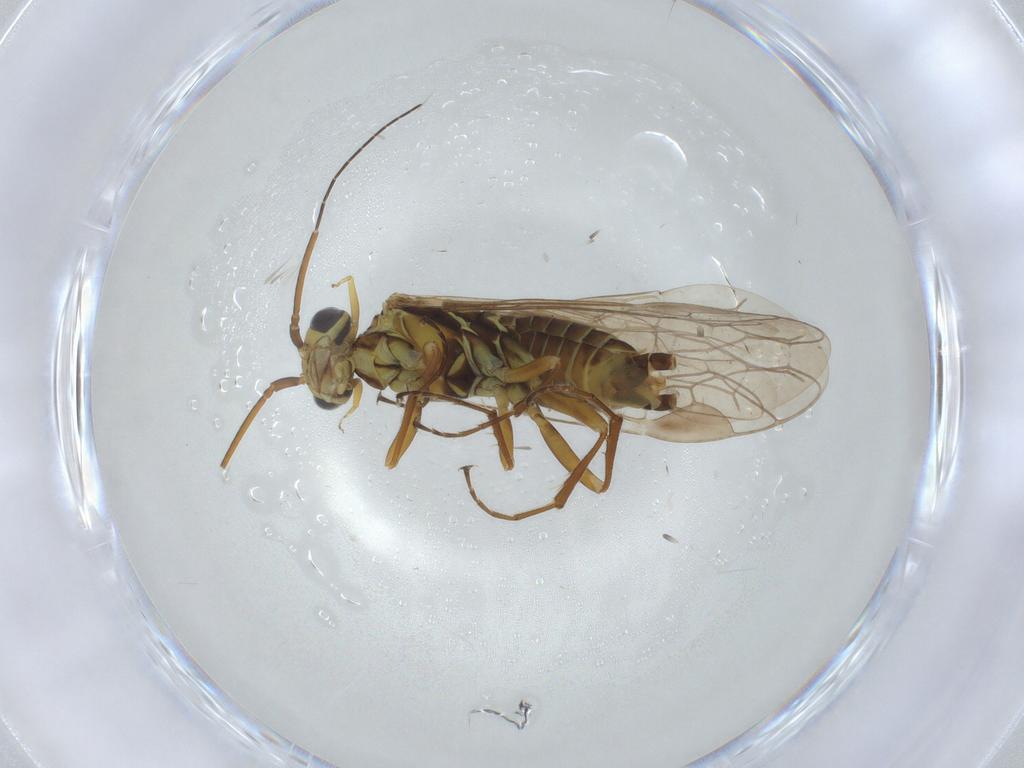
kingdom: Animalia
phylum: Arthropoda
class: Insecta
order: Hymenoptera
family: Xyelidae
